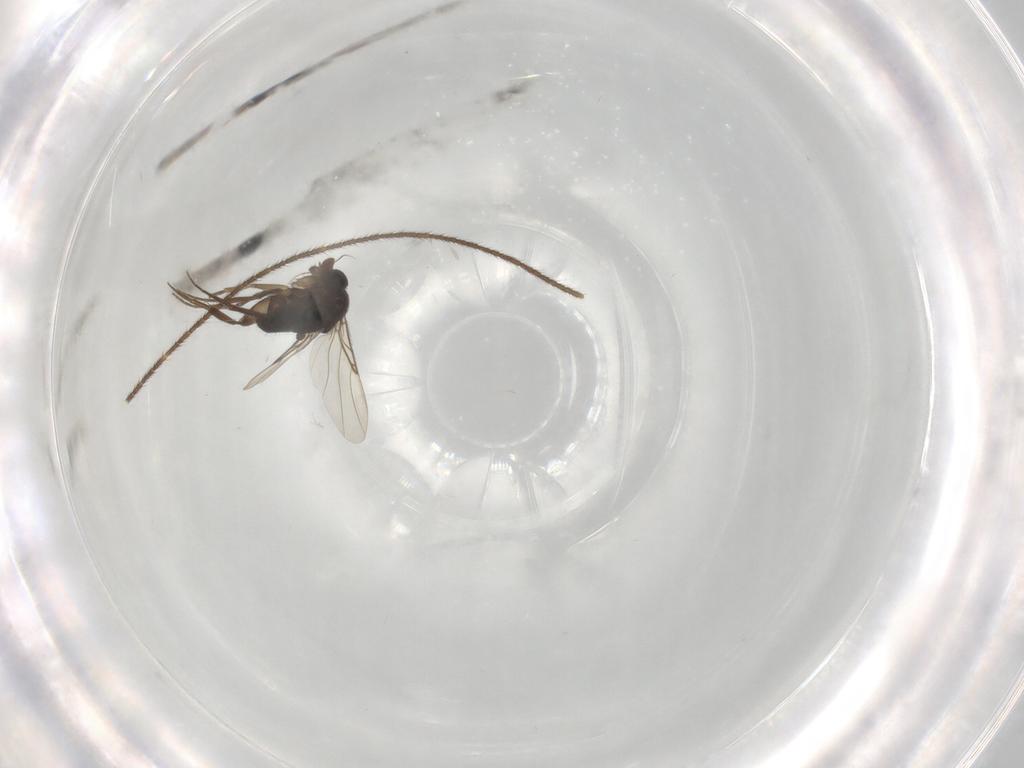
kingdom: Animalia
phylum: Arthropoda
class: Insecta
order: Diptera
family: Phoridae
